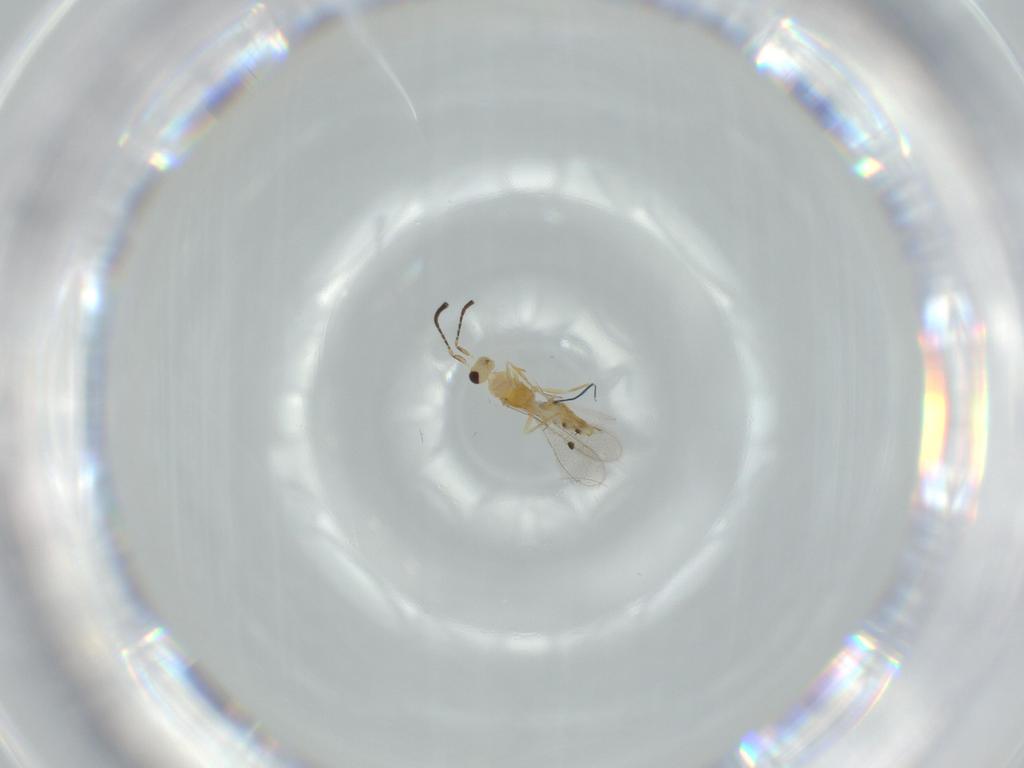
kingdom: Animalia
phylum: Arthropoda
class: Insecta
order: Hymenoptera
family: Mymaridae
